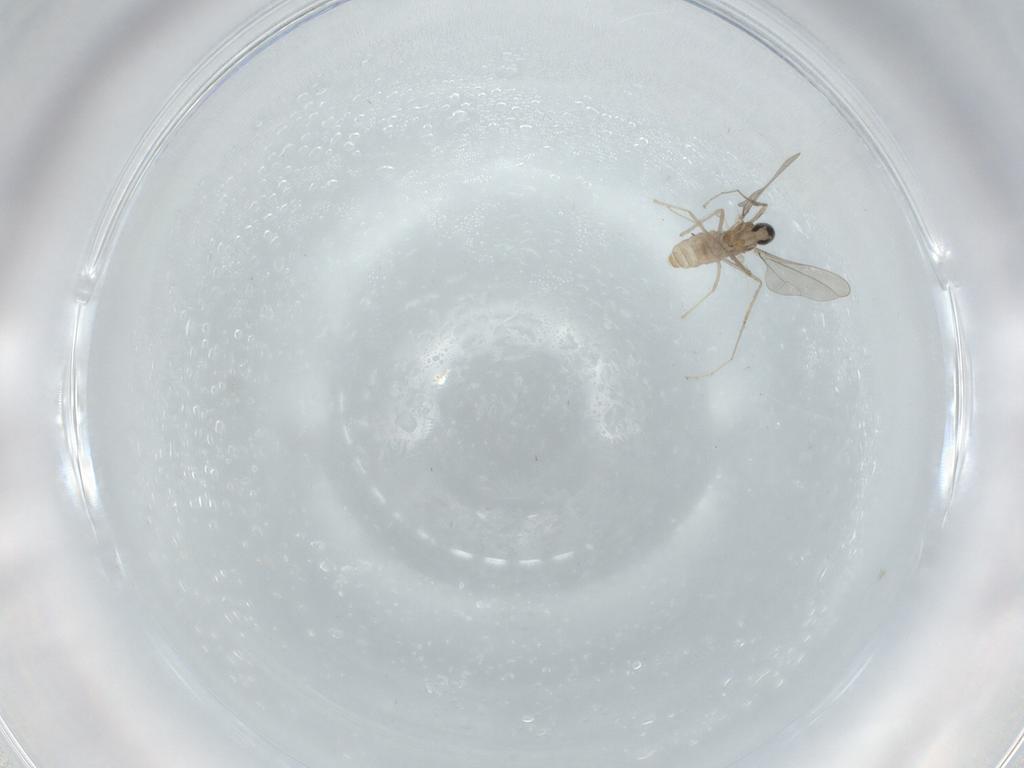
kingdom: Animalia
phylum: Arthropoda
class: Insecta
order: Diptera
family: Cecidomyiidae
